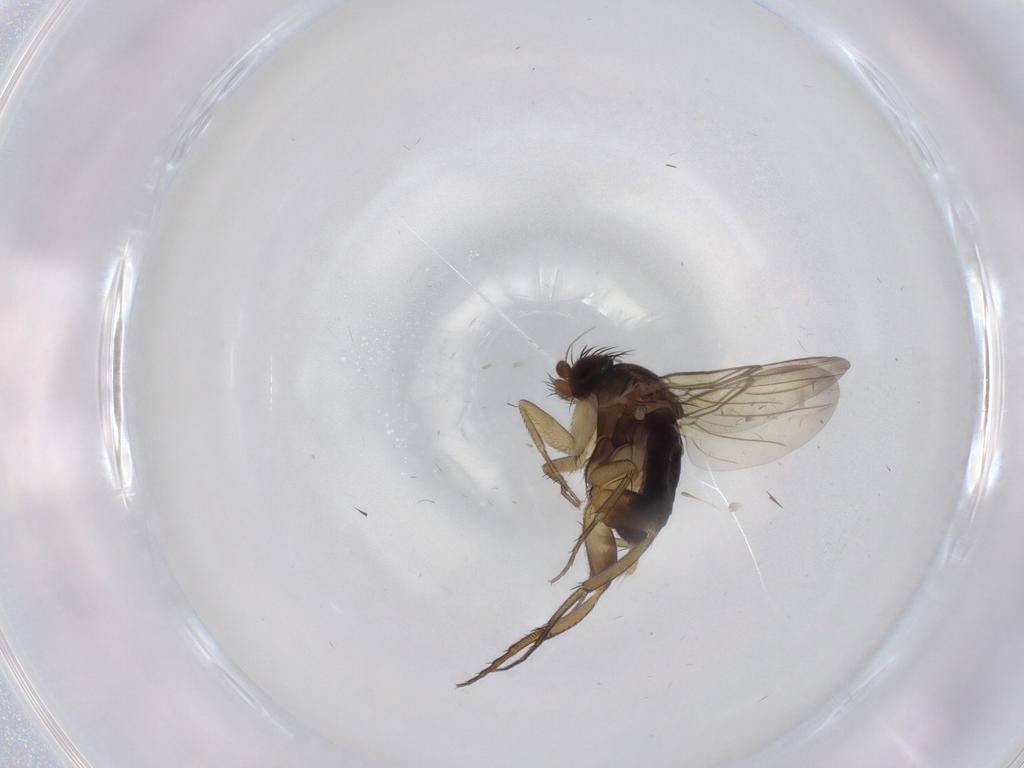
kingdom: Animalia
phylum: Arthropoda
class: Insecta
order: Diptera
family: Phoridae
